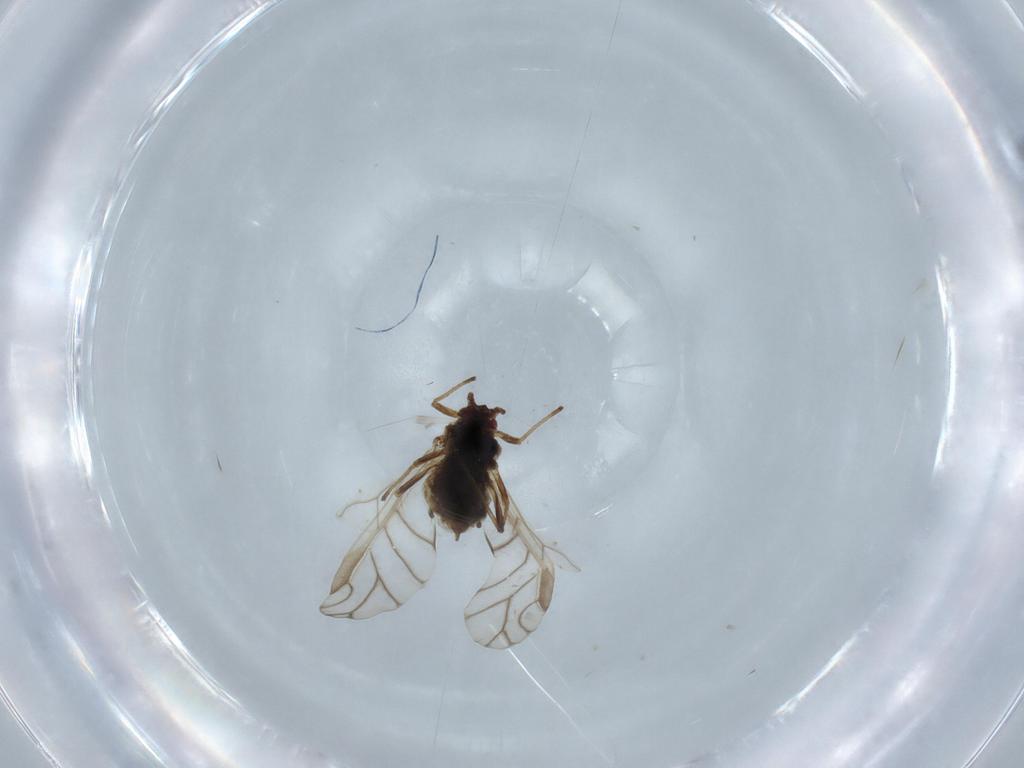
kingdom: Animalia
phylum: Arthropoda
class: Insecta
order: Hemiptera
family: Aphididae
